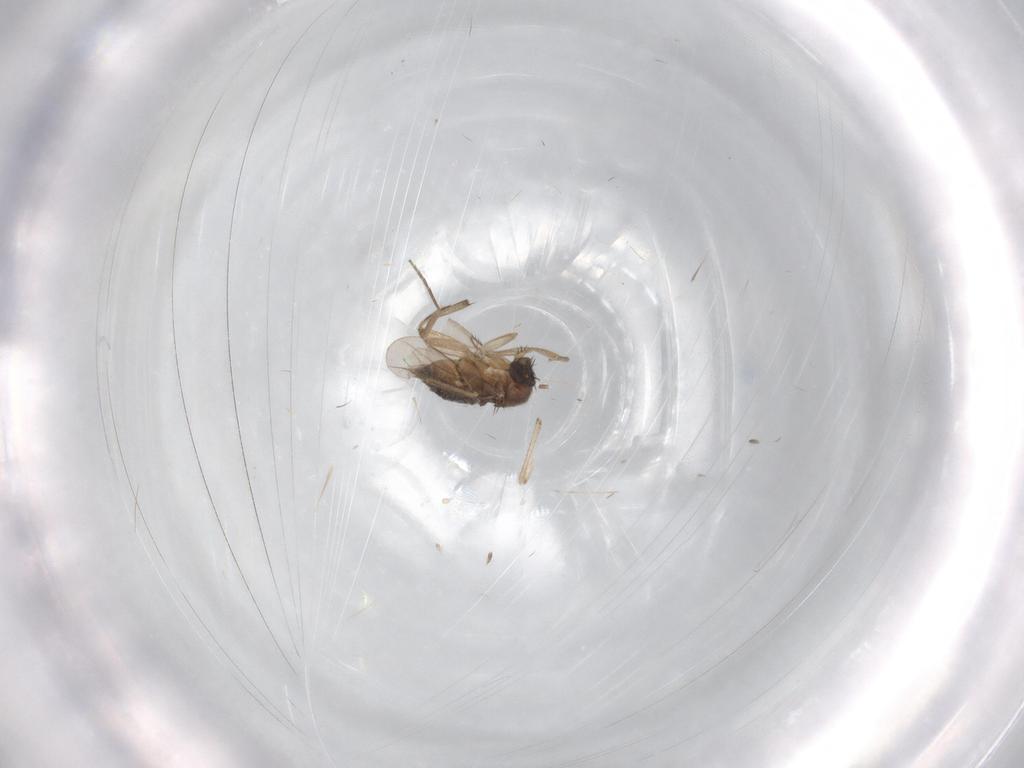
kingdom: Animalia
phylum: Arthropoda
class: Insecta
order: Diptera
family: Phoridae
